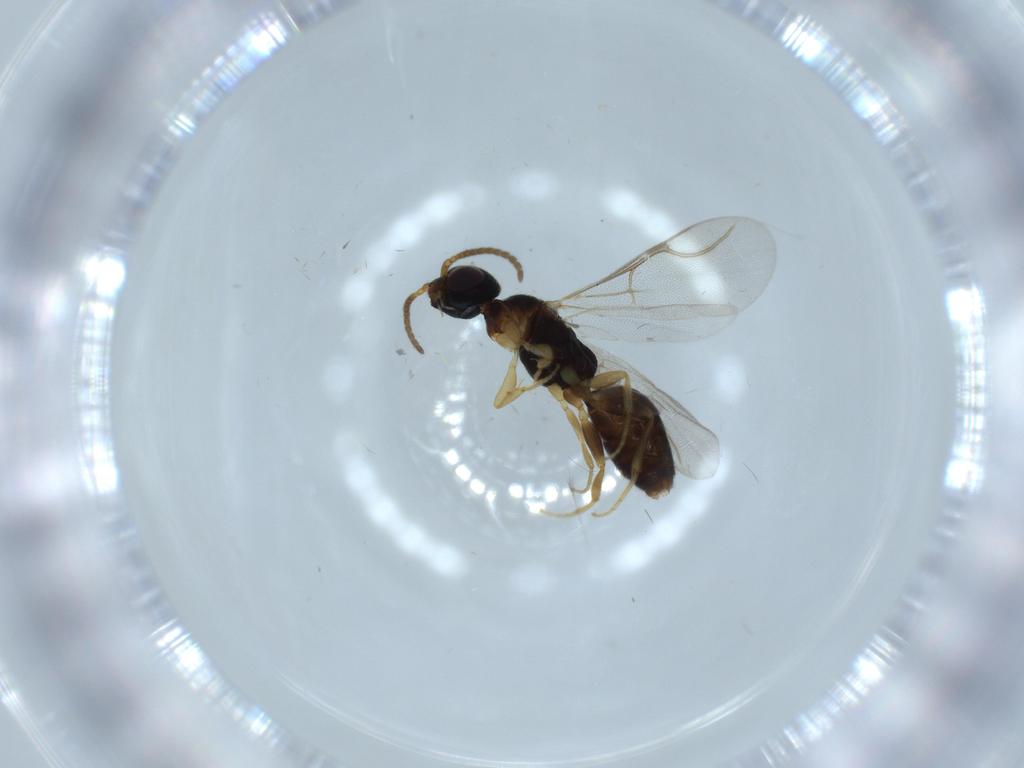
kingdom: Animalia
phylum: Arthropoda
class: Insecta
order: Hymenoptera
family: Bethylidae
